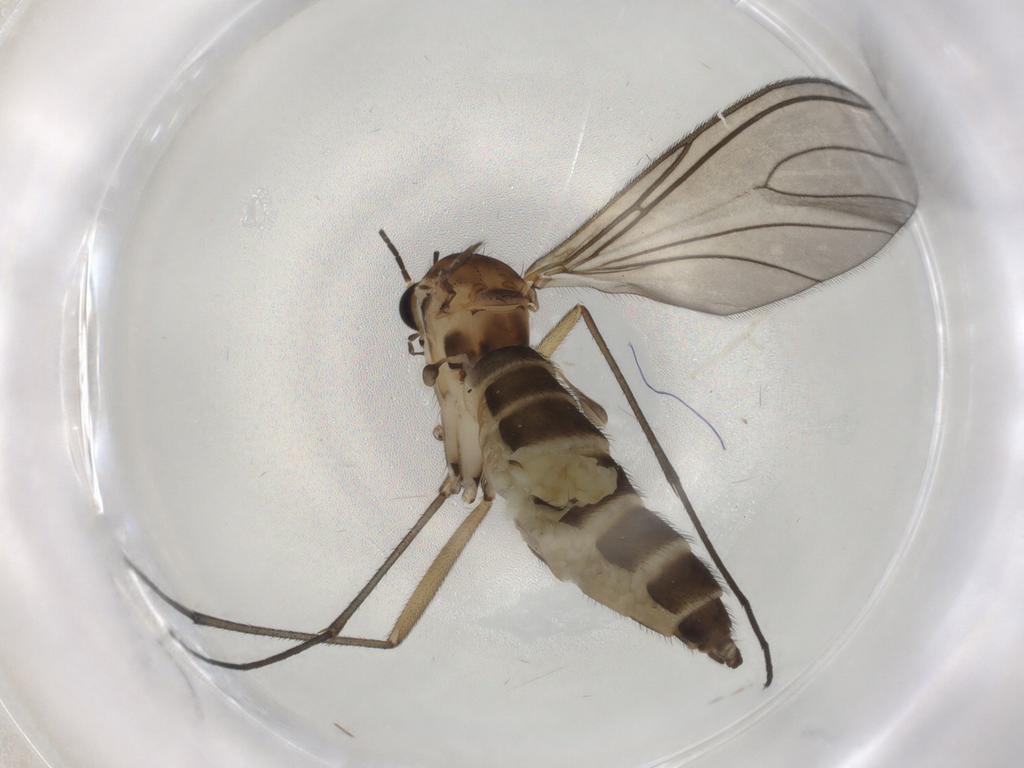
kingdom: Animalia
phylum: Arthropoda
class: Insecta
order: Diptera
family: Sciaridae
